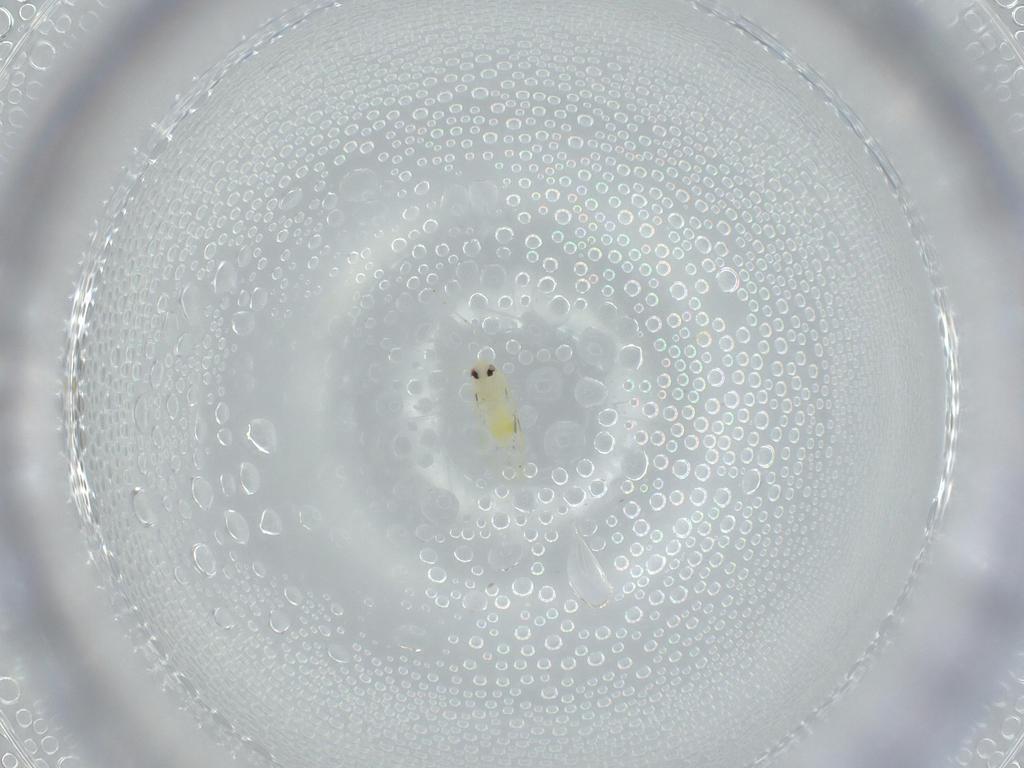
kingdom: Animalia
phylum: Arthropoda
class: Insecta
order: Hemiptera
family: Aleyrodidae
